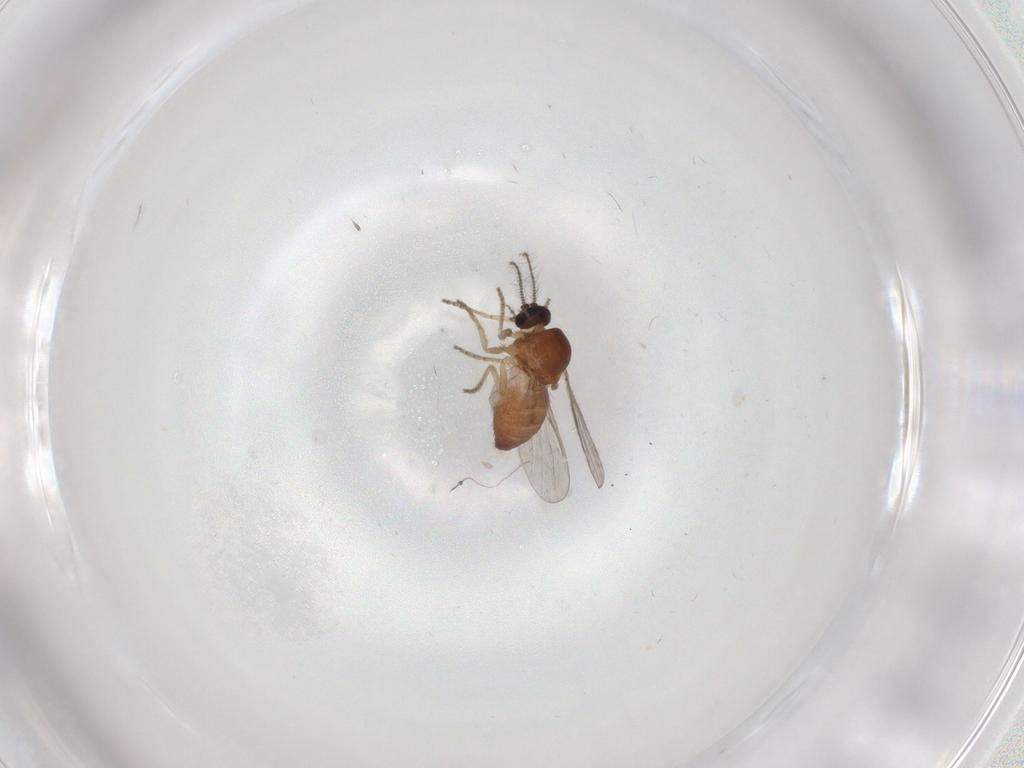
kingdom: Animalia
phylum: Arthropoda
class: Insecta
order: Diptera
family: Ceratopogonidae
